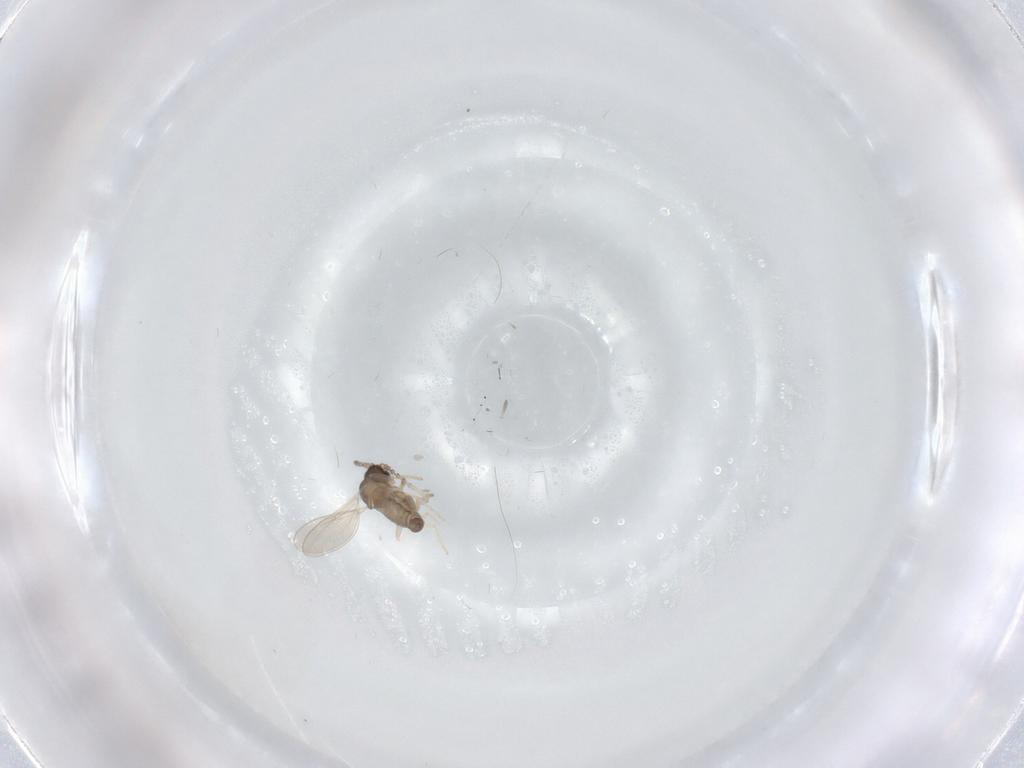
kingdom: Animalia
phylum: Arthropoda
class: Insecta
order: Diptera
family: Cecidomyiidae
